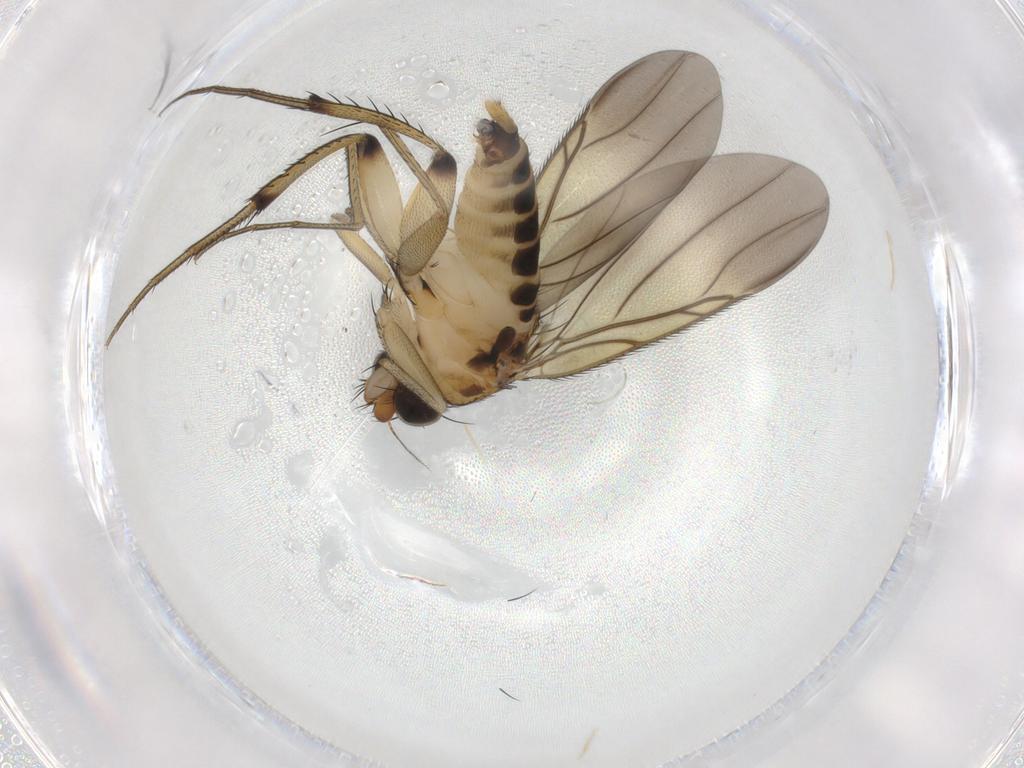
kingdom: Animalia
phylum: Arthropoda
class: Insecta
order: Diptera
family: Phoridae
